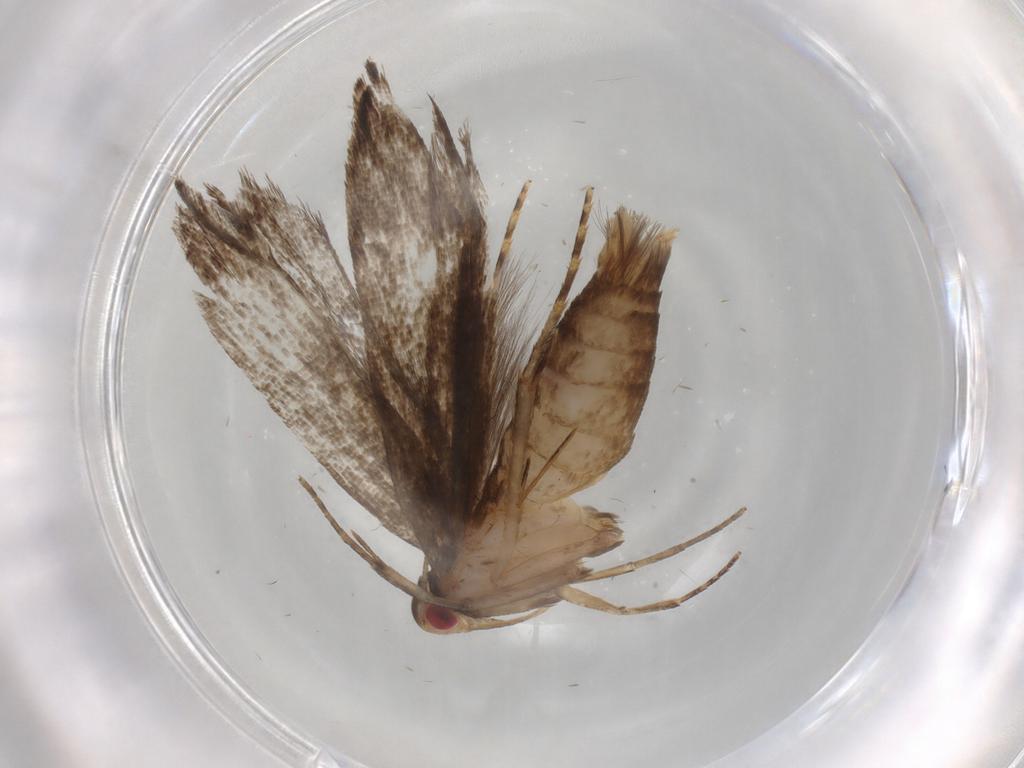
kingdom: Animalia
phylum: Arthropoda
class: Insecta
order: Lepidoptera
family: Gelechiidae
